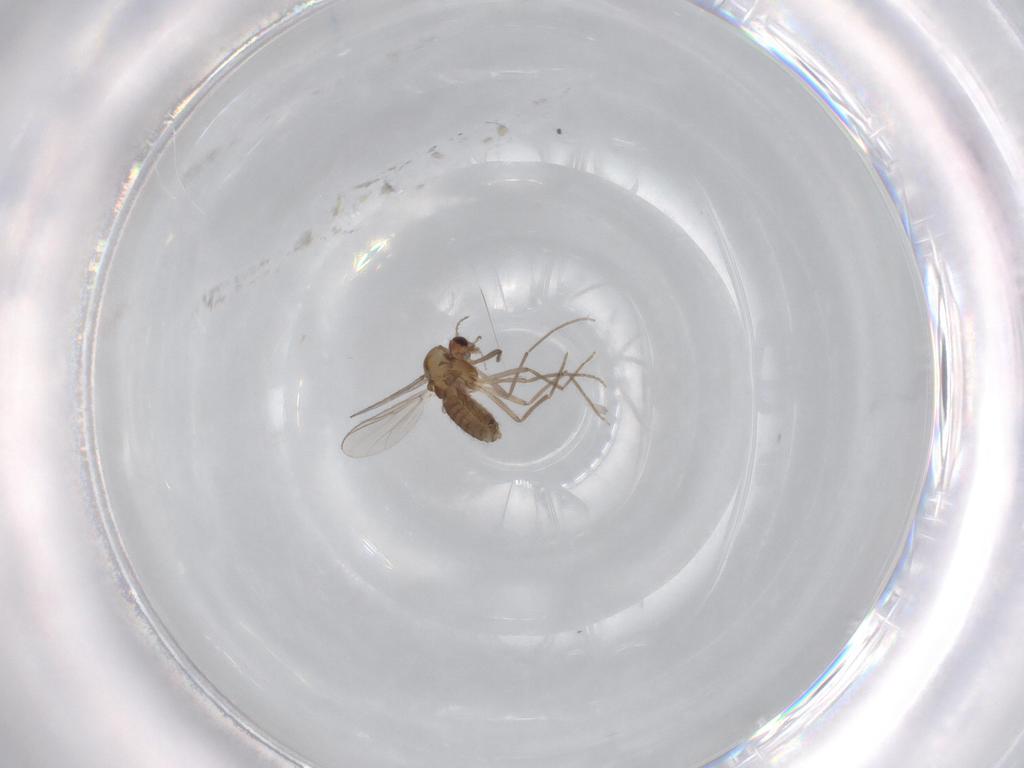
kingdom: Animalia
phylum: Arthropoda
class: Insecta
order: Diptera
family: Chironomidae
